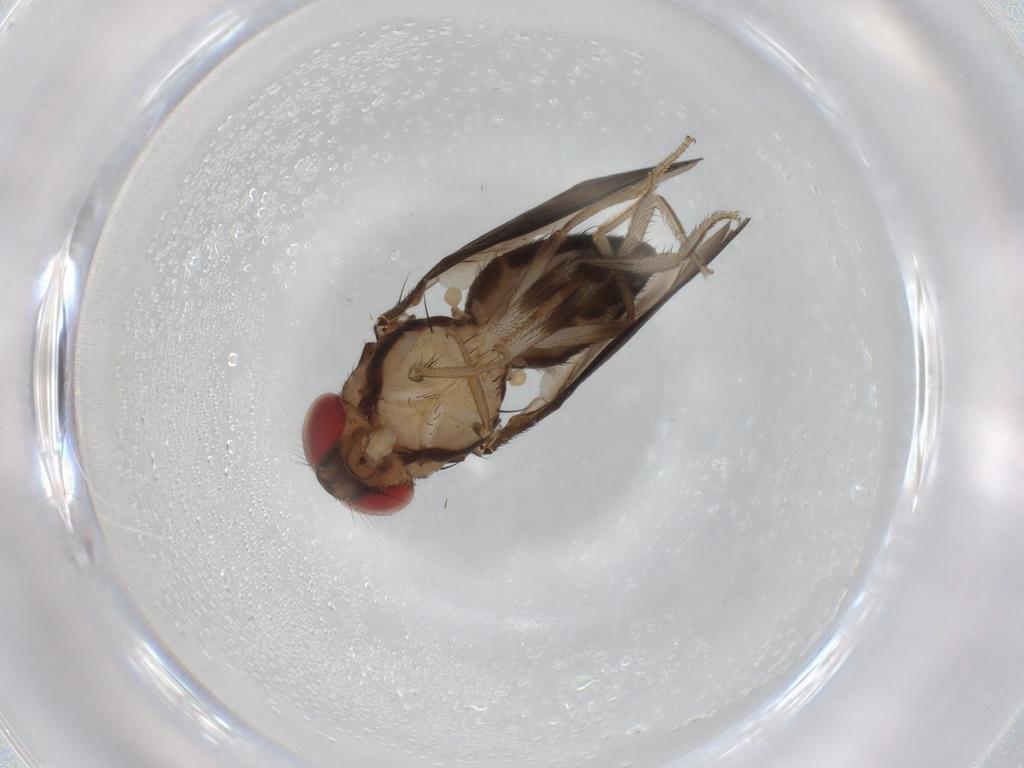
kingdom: Animalia
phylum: Arthropoda
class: Insecta
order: Diptera
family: Drosophilidae
